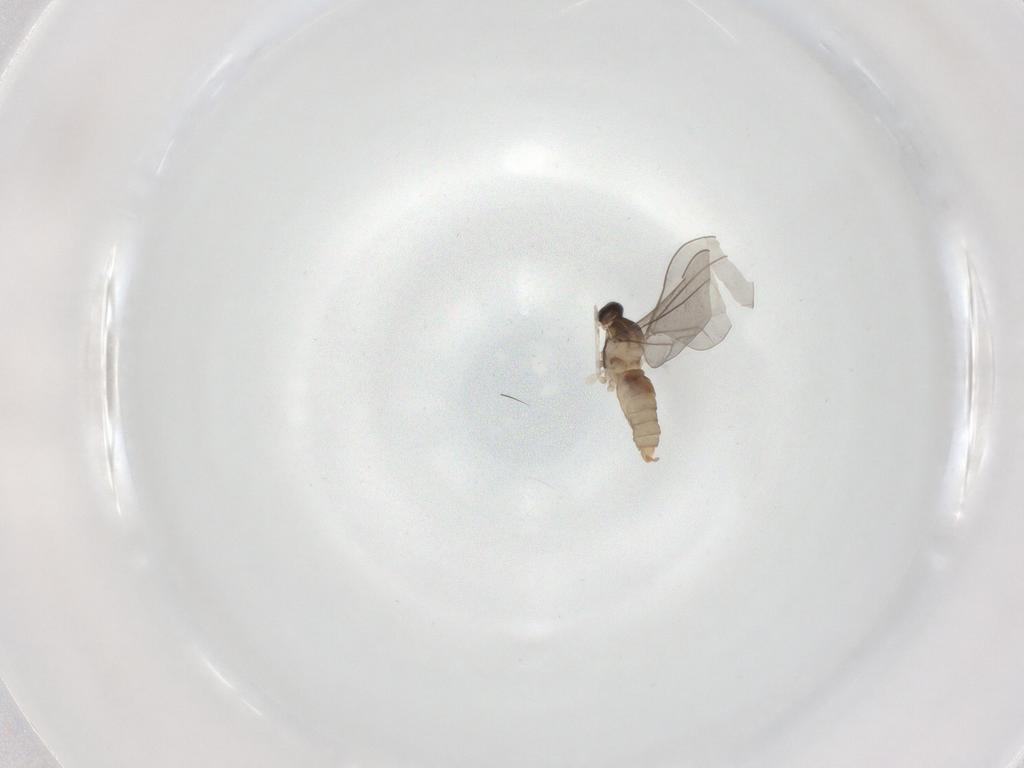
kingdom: Animalia
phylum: Arthropoda
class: Insecta
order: Diptera
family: Cecidomyiidae
